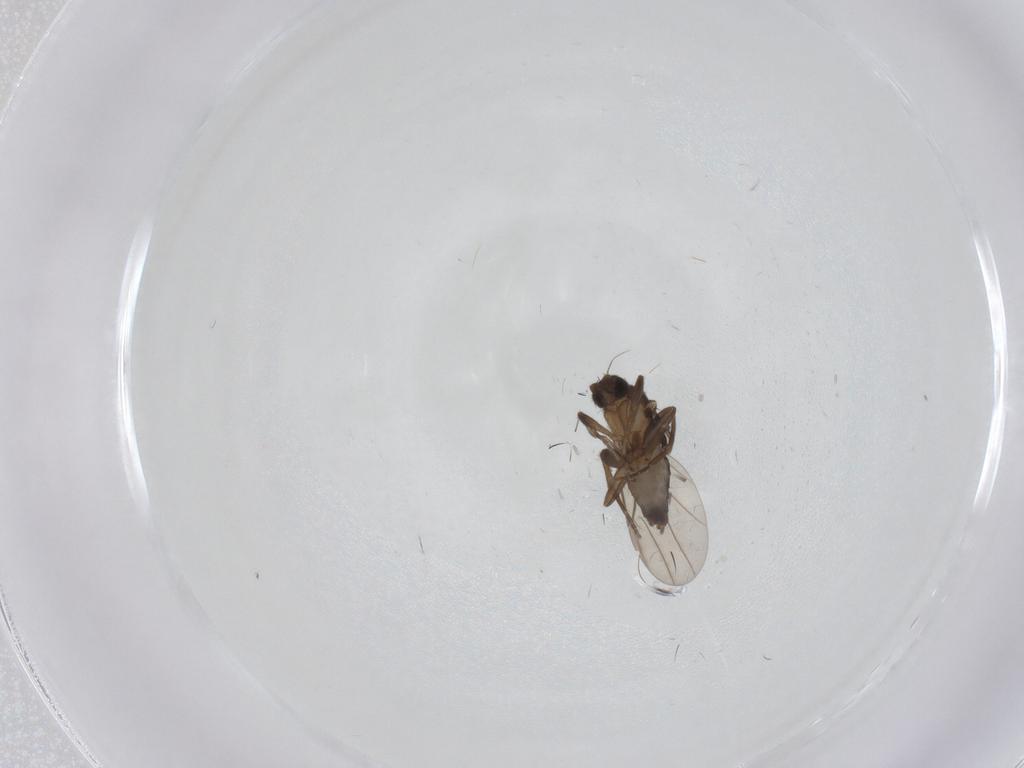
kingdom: Animalia
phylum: Arthropoda
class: Insecta
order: Diptera
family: Phoridae
